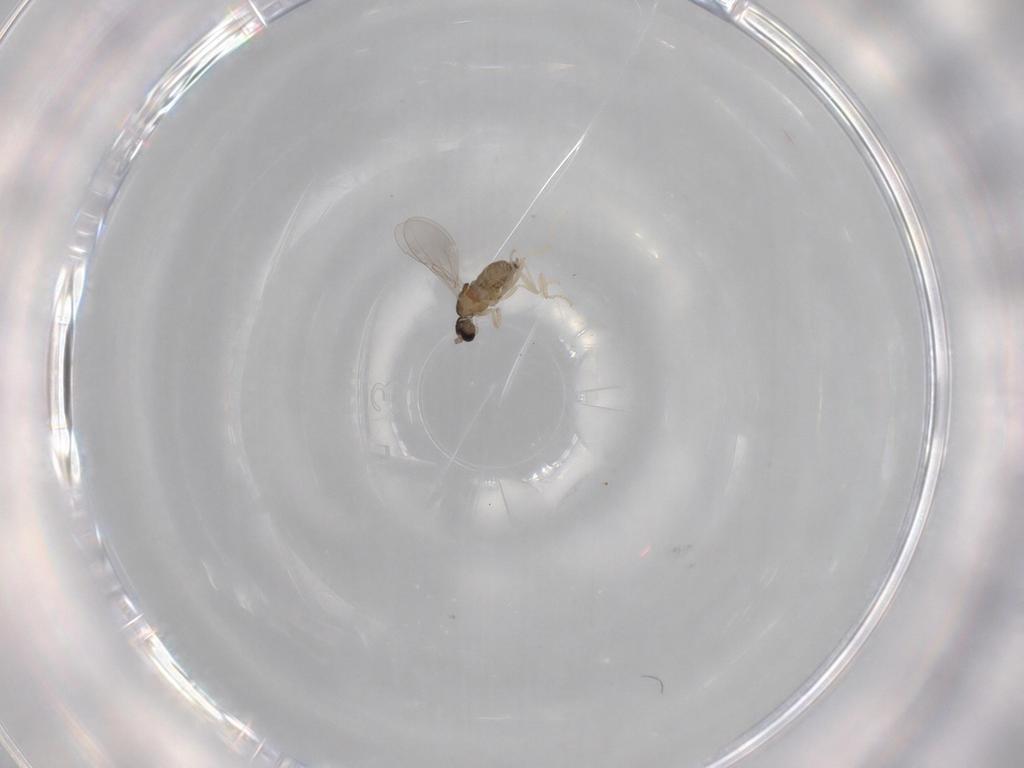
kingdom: Animalia
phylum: Arthropoda
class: Insecta
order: Diptera
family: Cecidomyiidae
